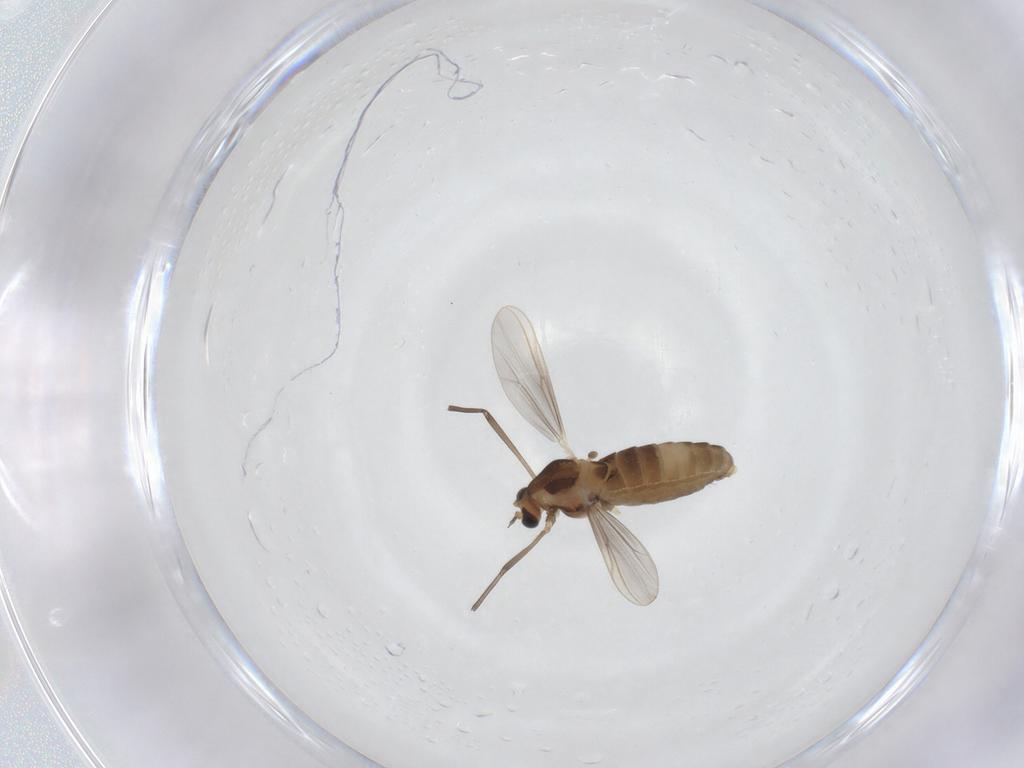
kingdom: Animalia
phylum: Arthropoda
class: Insecta
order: Diptera
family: Chironomidae
